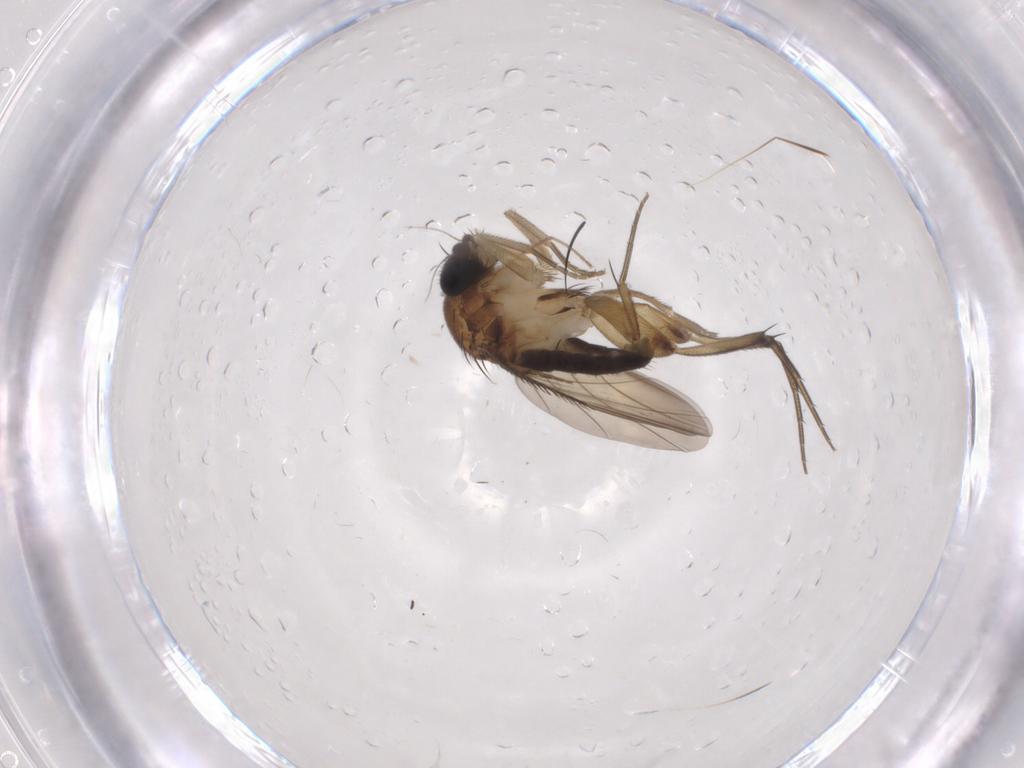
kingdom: Animalia
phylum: Arthropoda
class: Insecta
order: Diptera
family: Phoridae
